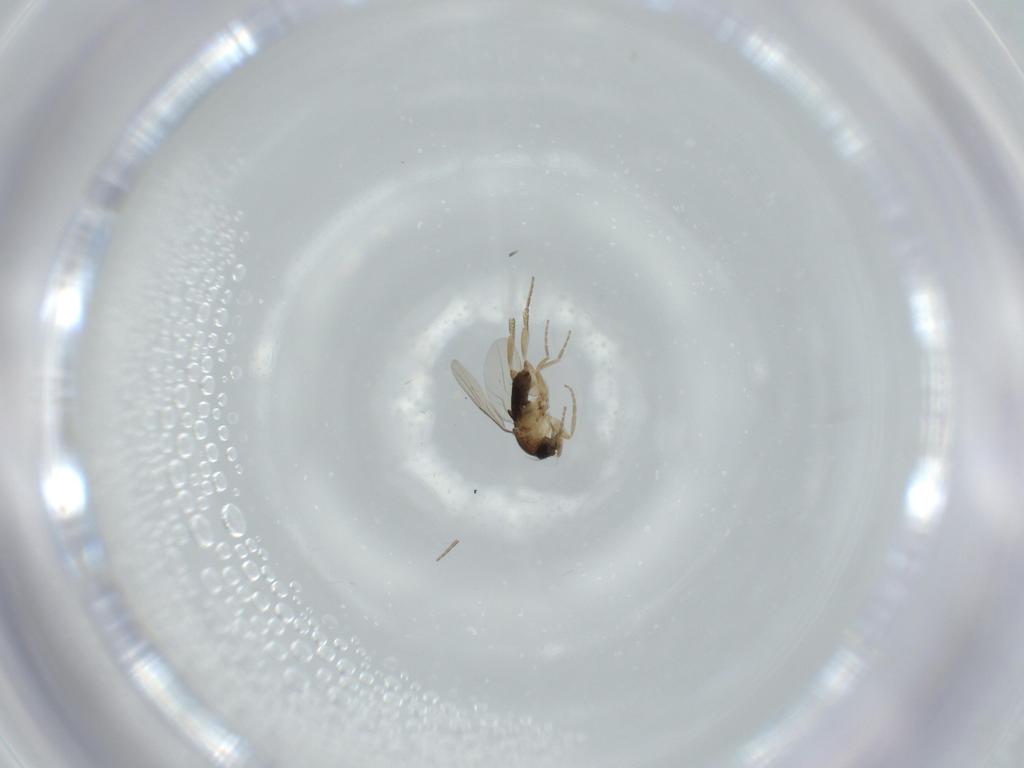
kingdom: Animalia
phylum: Arthropoda
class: Insecta
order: Diptera
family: Phoridae
